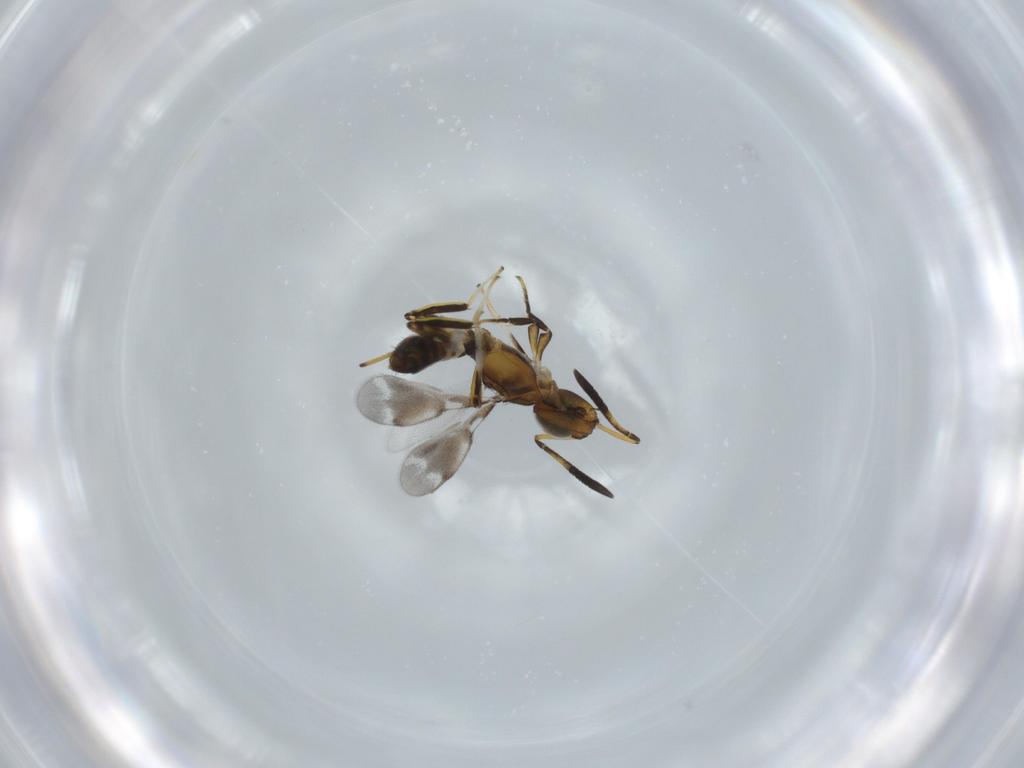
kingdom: Animalia
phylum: Arthropoda
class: Insecta
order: Hymenoptera
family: Eupelmidae
